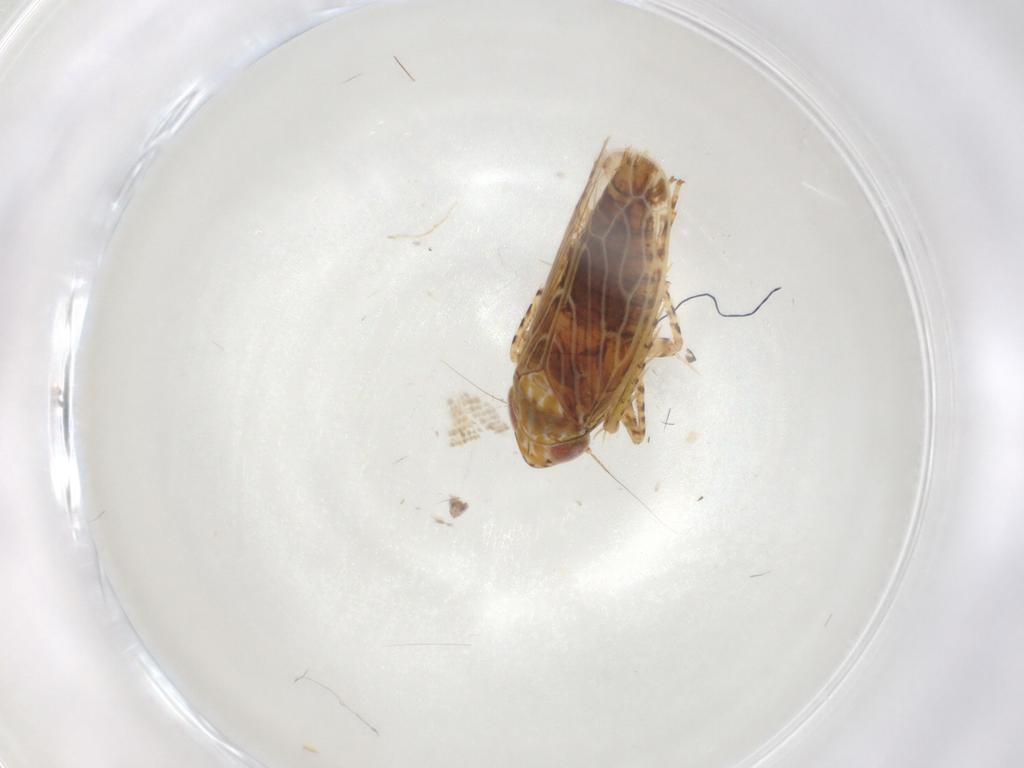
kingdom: Animalia
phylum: Arthropoda
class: Insecta
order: Hemiptera
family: Cicadellidae
